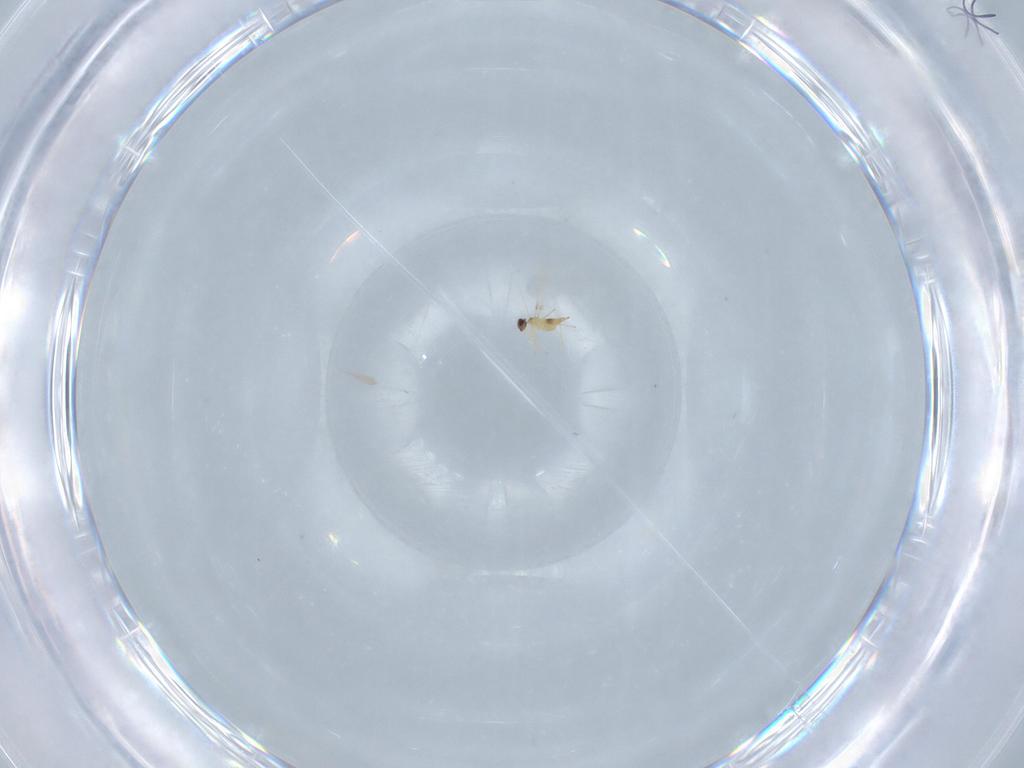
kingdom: Animalia
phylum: Arthropoda
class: Insecta
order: Hymenoptera
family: Mymaridae
